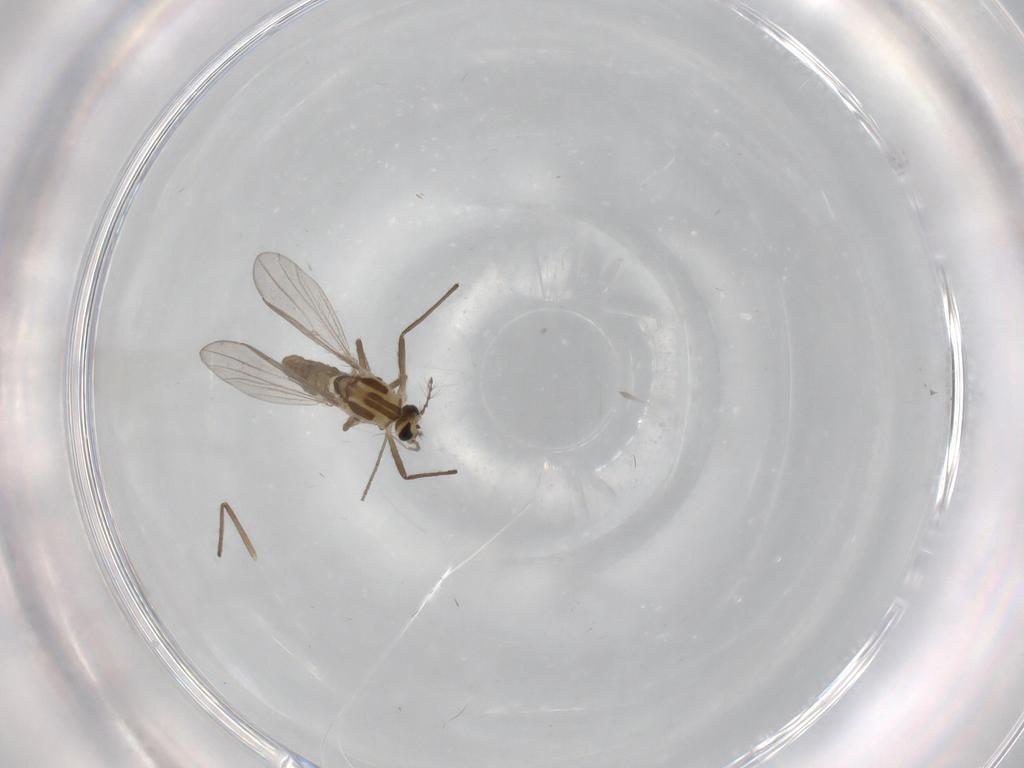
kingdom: Animalia
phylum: Arthropoda
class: Insecta
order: Diptera
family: Chironomidae
